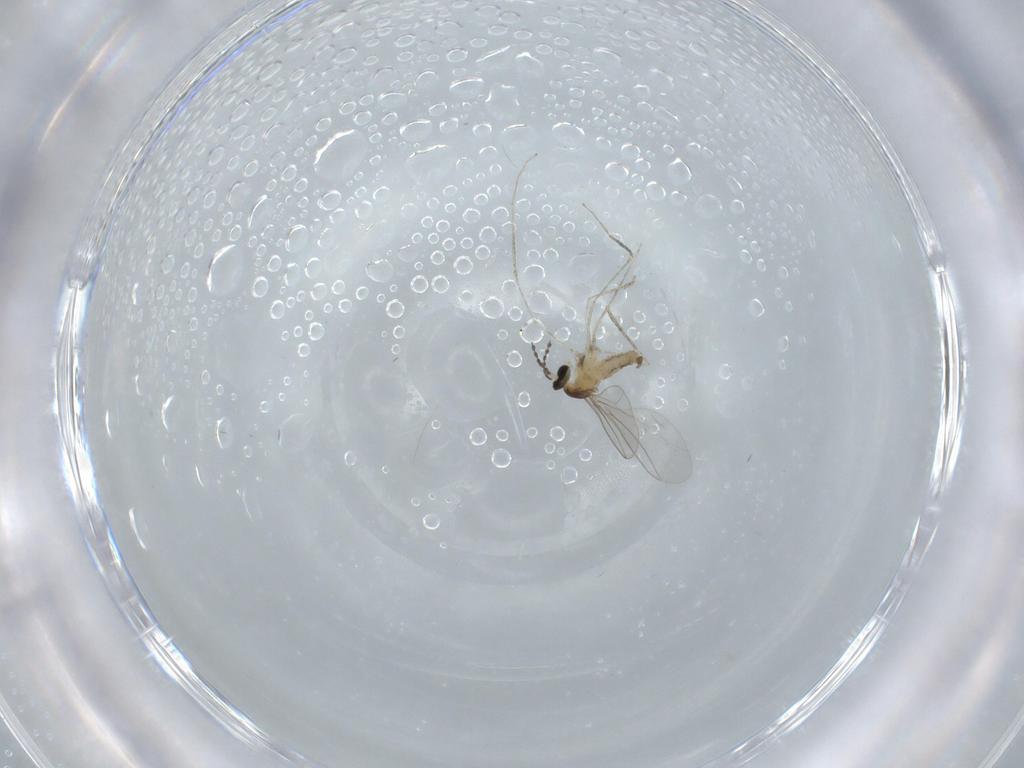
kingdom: Animalia
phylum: Arthropoda
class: Insecta
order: Diptera
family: Cecidomyiidae
